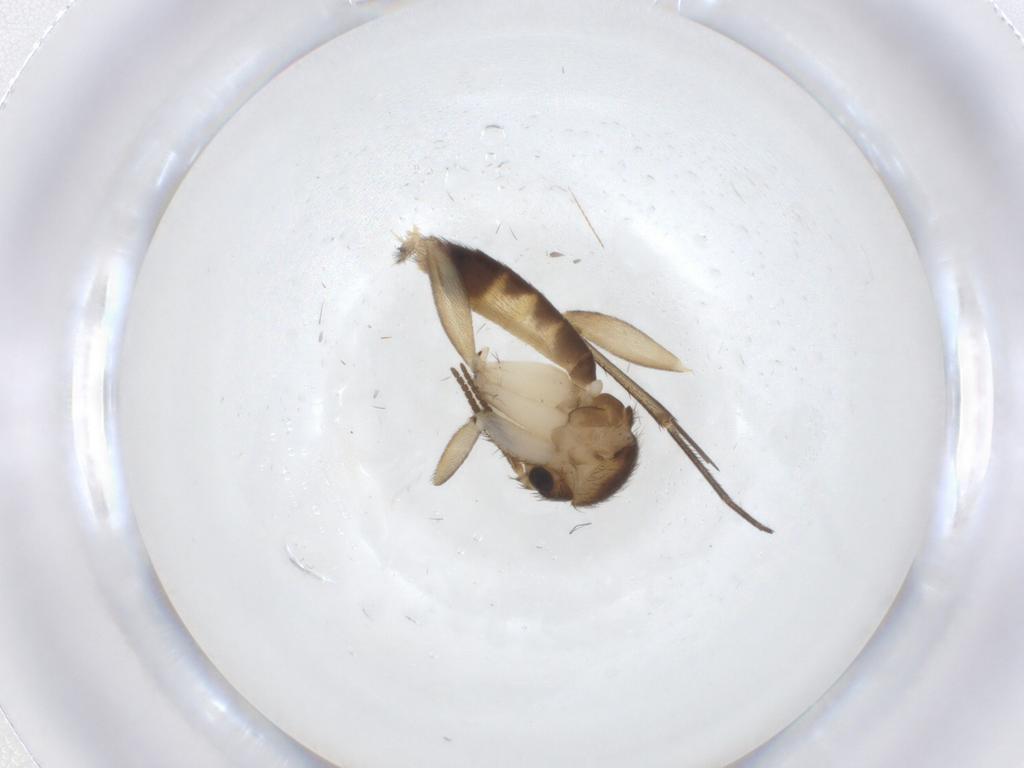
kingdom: Animalia
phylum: Arthropoda
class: Insecta
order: Diptera
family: Mycetophilidae
